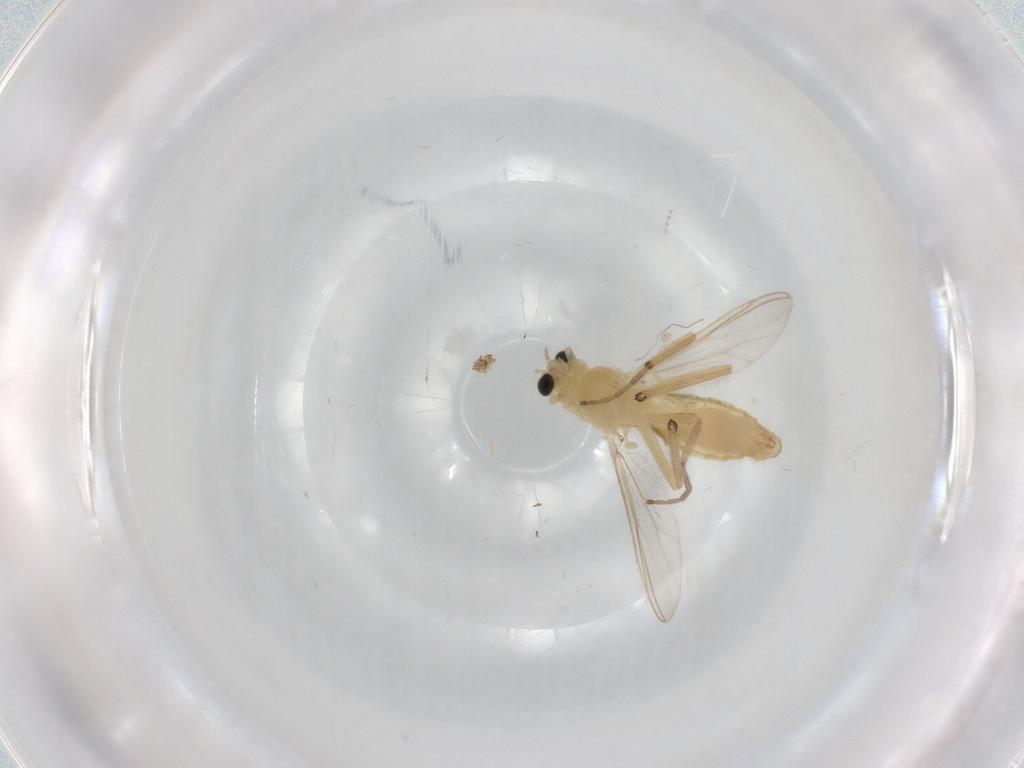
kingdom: Animalia
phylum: Arthropoda
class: Insecta
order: Diptera
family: Chironomidae
